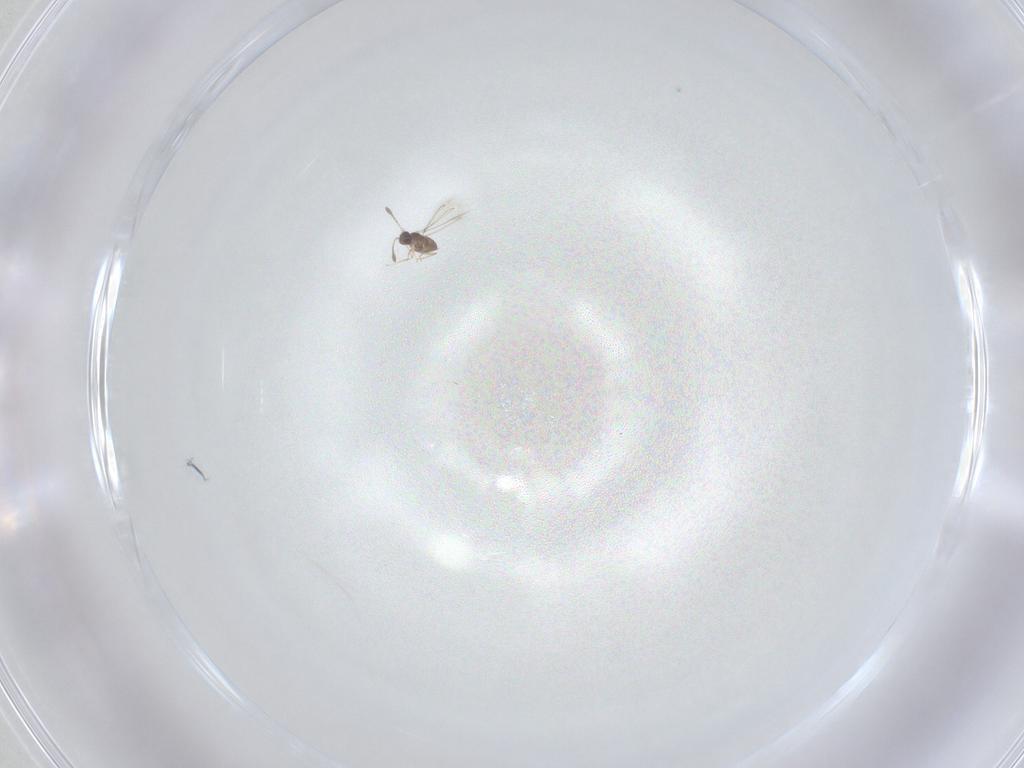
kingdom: Animalia
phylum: Arthropoda
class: Insecta
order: Hymenoptera
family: Mymaridae
